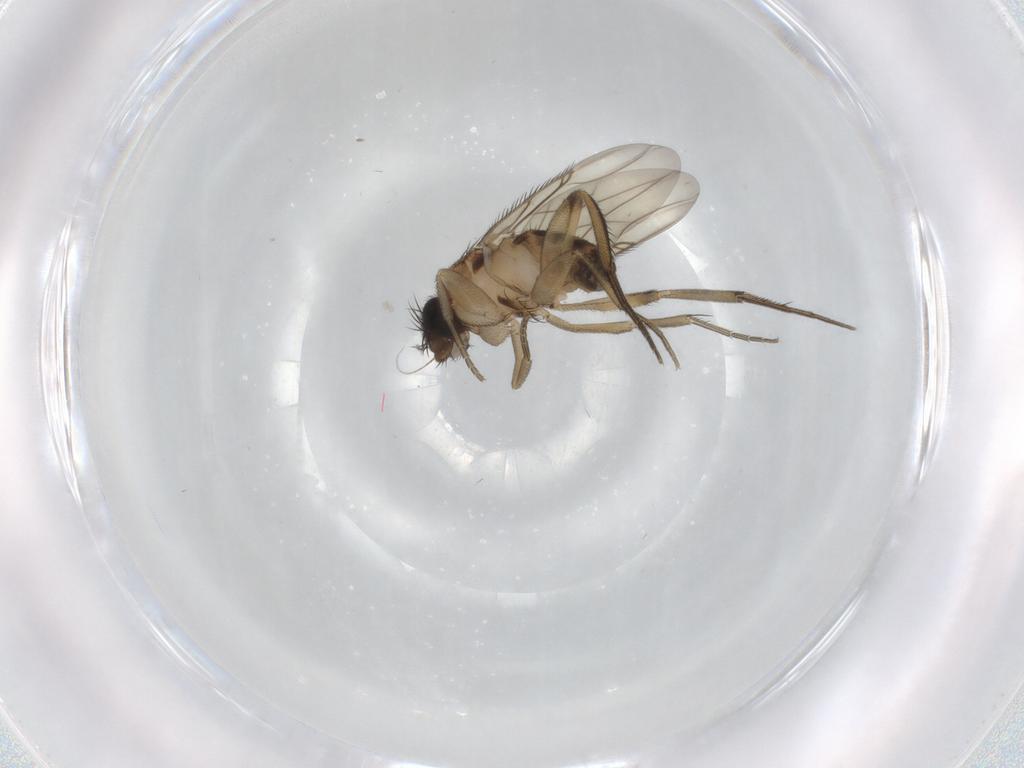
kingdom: Animalia
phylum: Arthropoda
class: Insecta
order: Diptera
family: Phoridae
